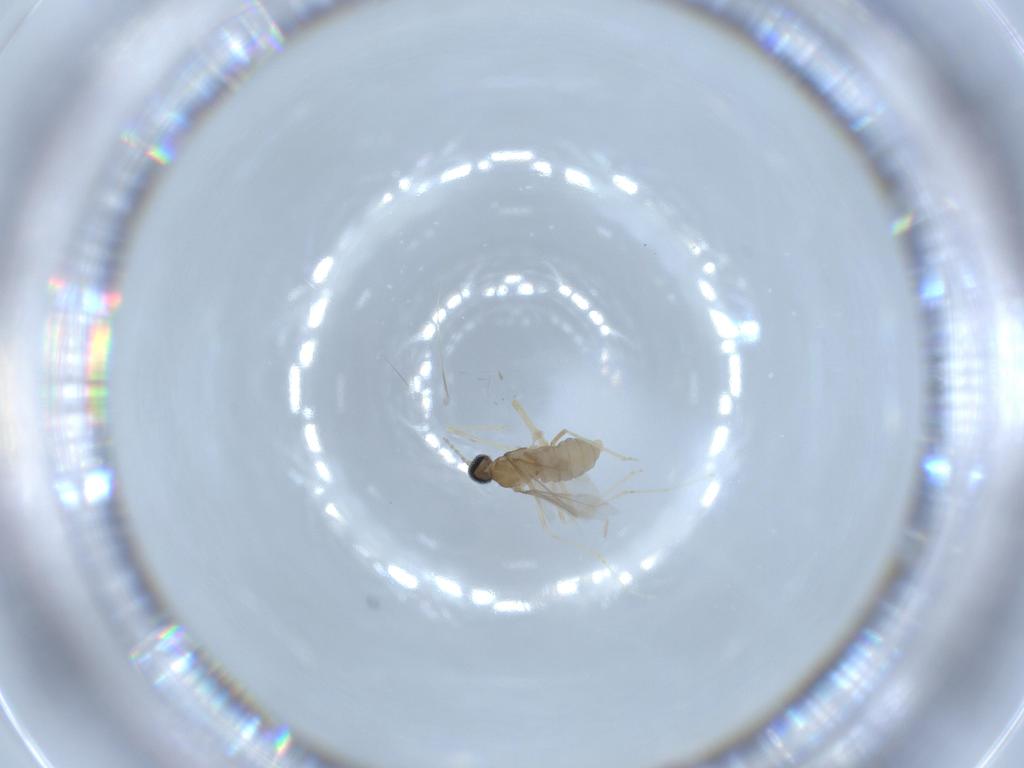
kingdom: Animalia
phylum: Arthropoda
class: Insecta
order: Diptera
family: Cecidomyiidae
